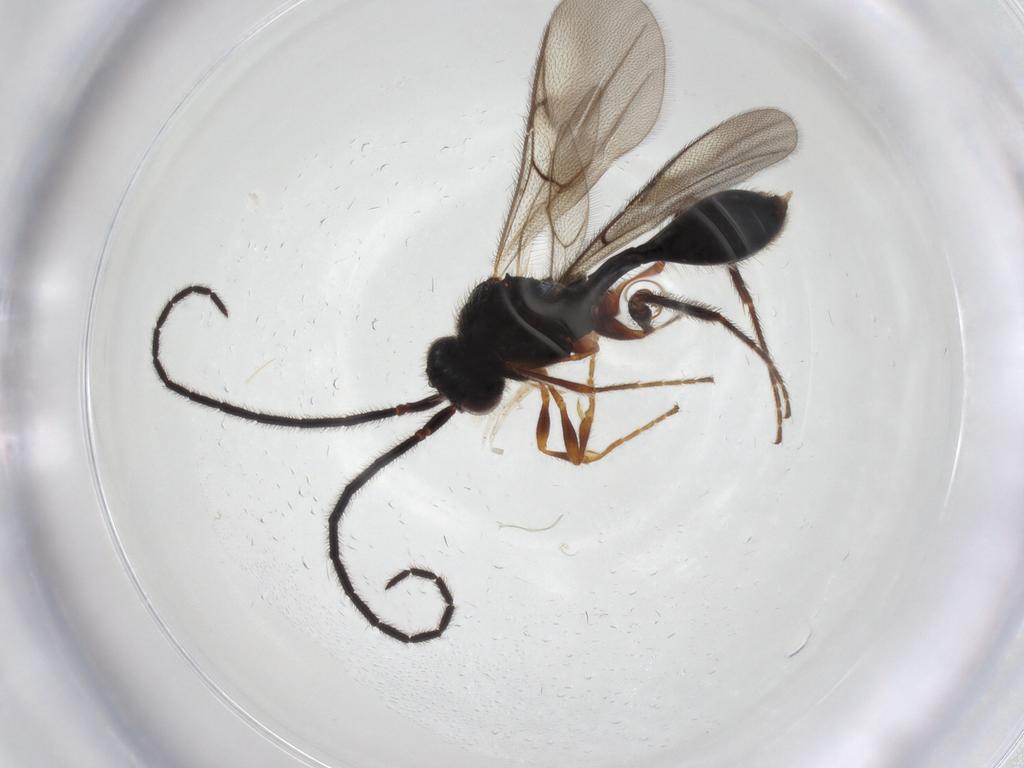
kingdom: Animalia
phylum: Arthropoda
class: Insecta
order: Hymenoptera
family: Diapriidae
